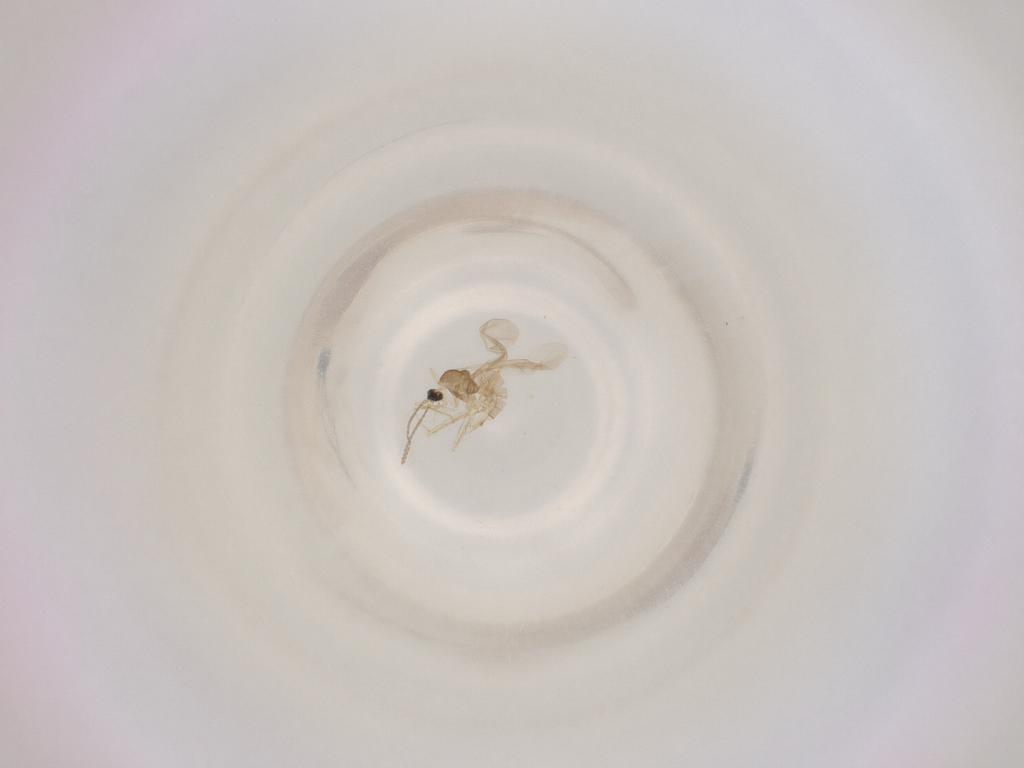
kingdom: Animalia
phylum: Arthropoda
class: Insecta
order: Diptera
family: Cecidomyiidae
